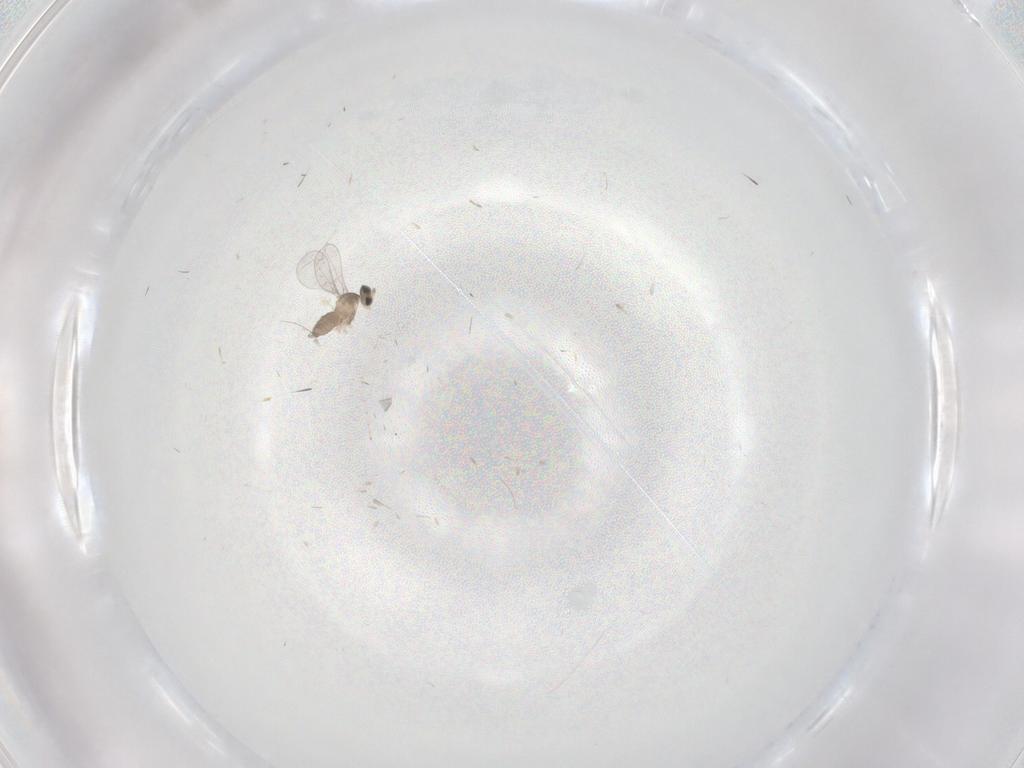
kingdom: Animalia
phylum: Arthropoda
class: Insecta
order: Diptera
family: Cecidomyiidae
